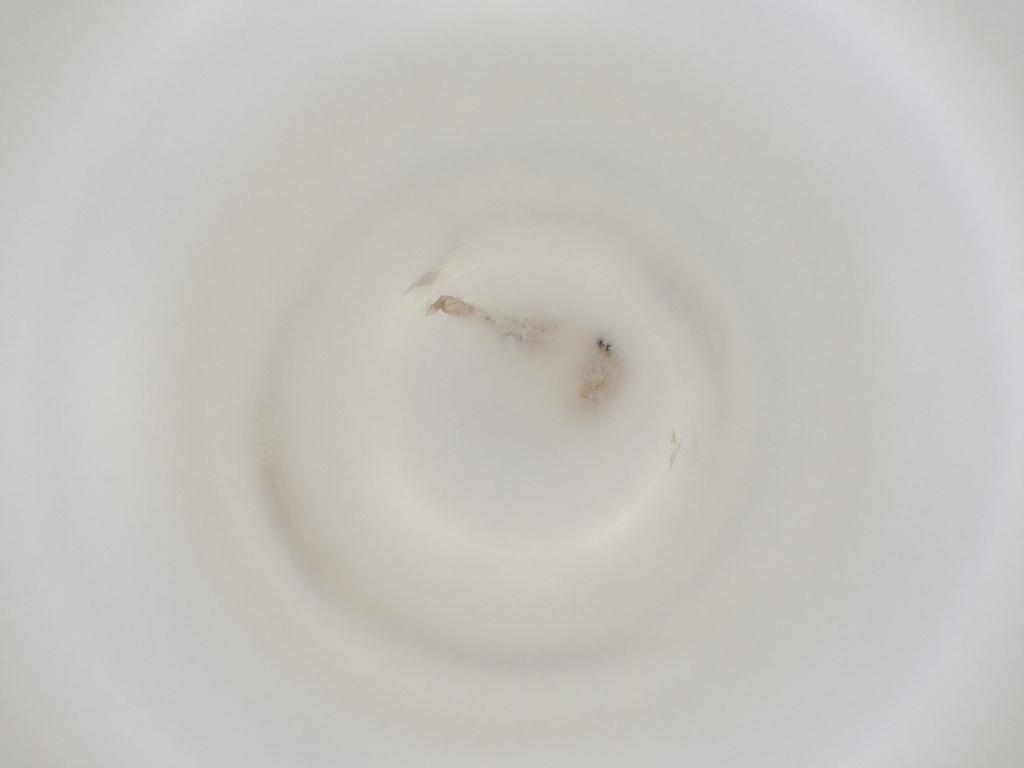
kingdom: Animalia
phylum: Arthropoda
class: Insecta
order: Diptera
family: Cecidomyiidae
